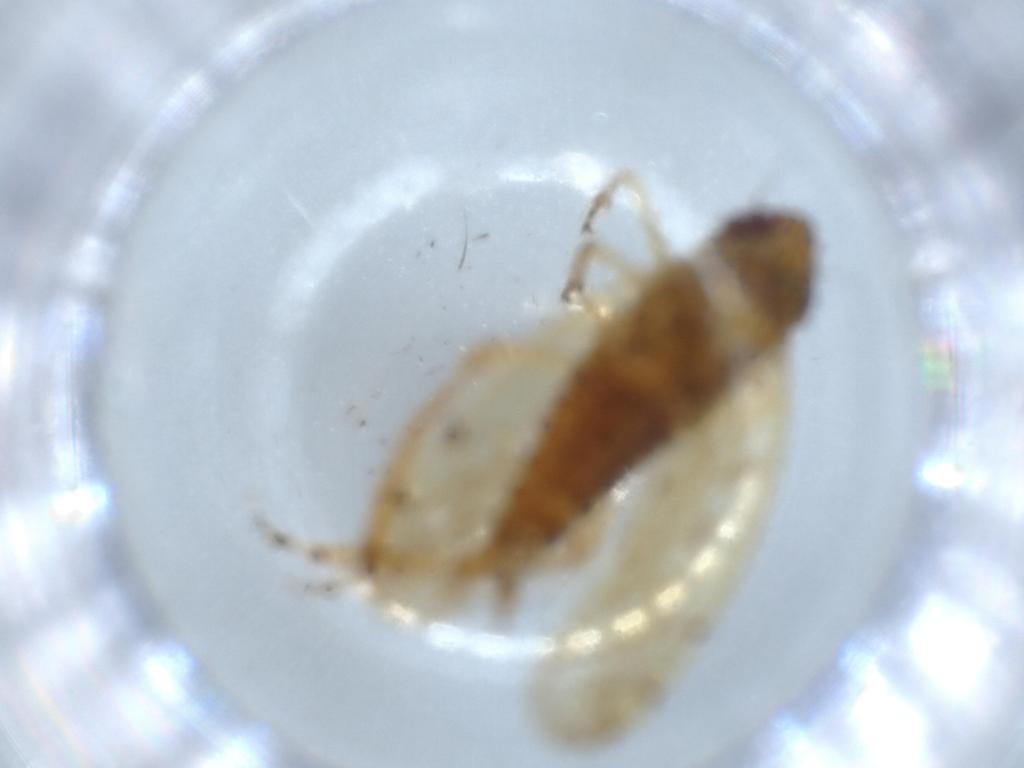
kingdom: Animalia
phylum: Arthropoda
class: Insecta
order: Hemiptera
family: Cicadellidae
